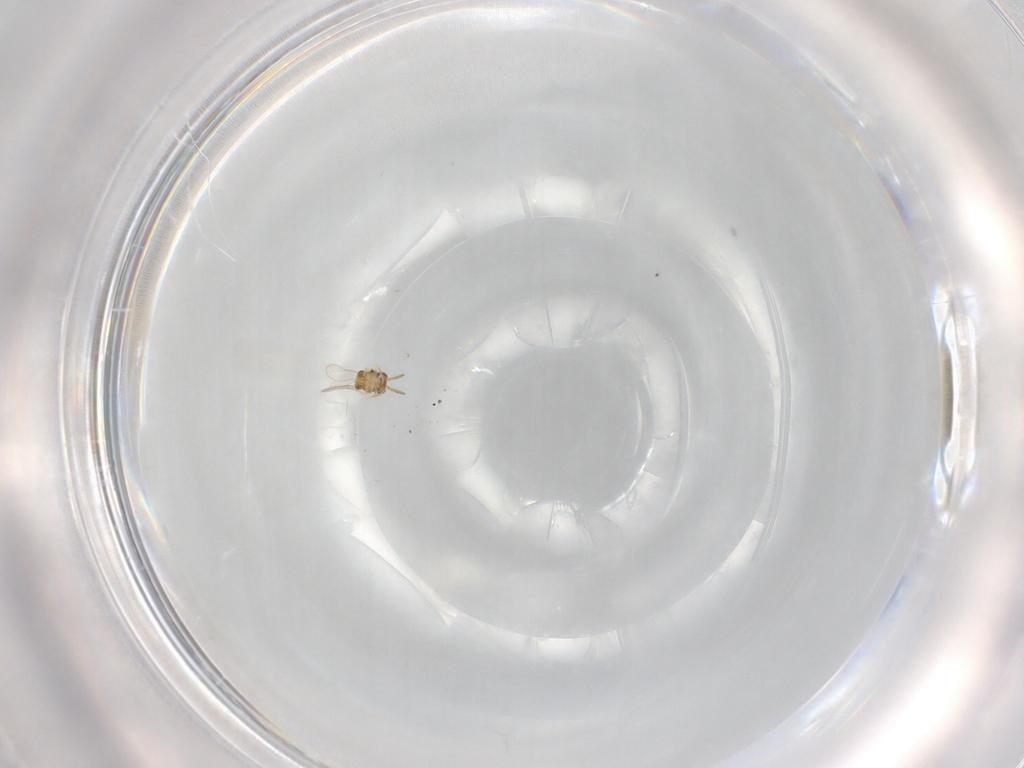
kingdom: Animalia
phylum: Arthropoda
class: Insecta
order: Hymenoptera
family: Aphelinidae
